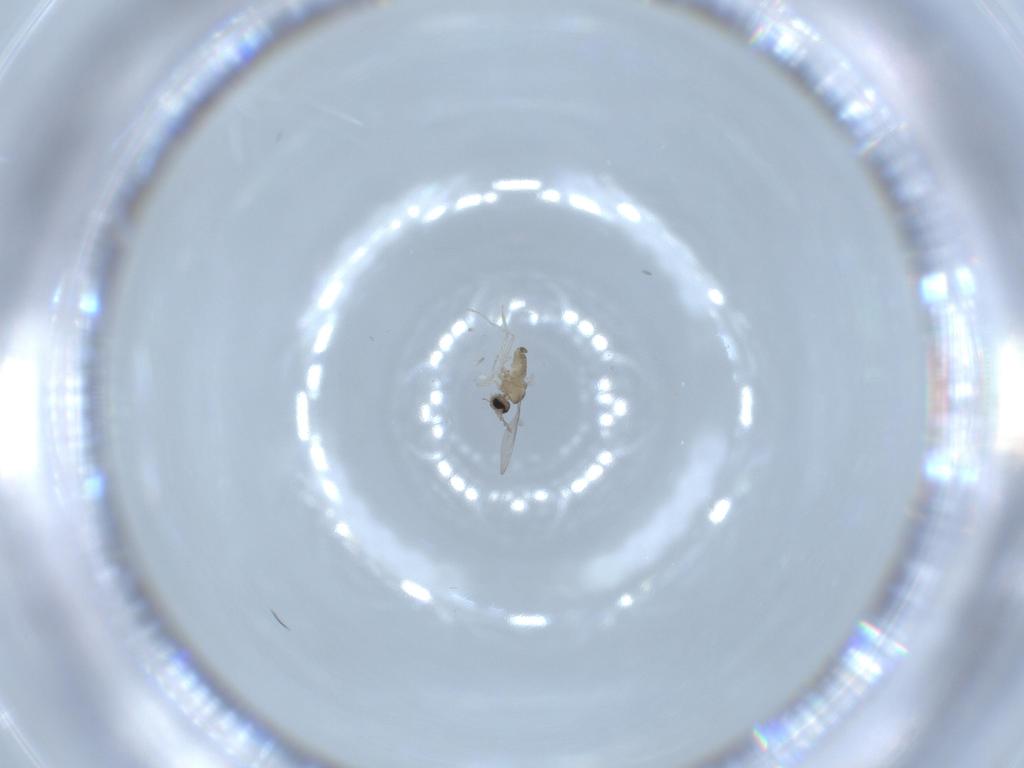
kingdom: Animalia
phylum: Arthropoda
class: Insecta
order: Diptera
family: Cecidomyiidae
